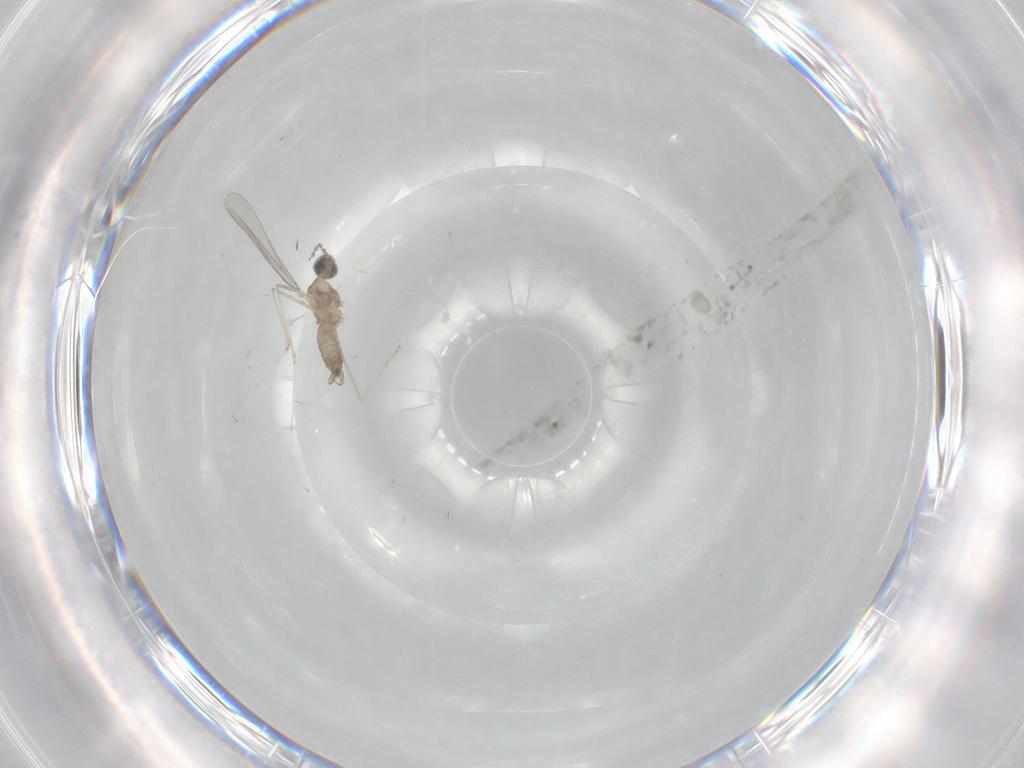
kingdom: Animalia
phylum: Arthropoda
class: Insecta
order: Diptera
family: Cecidomyiidae
